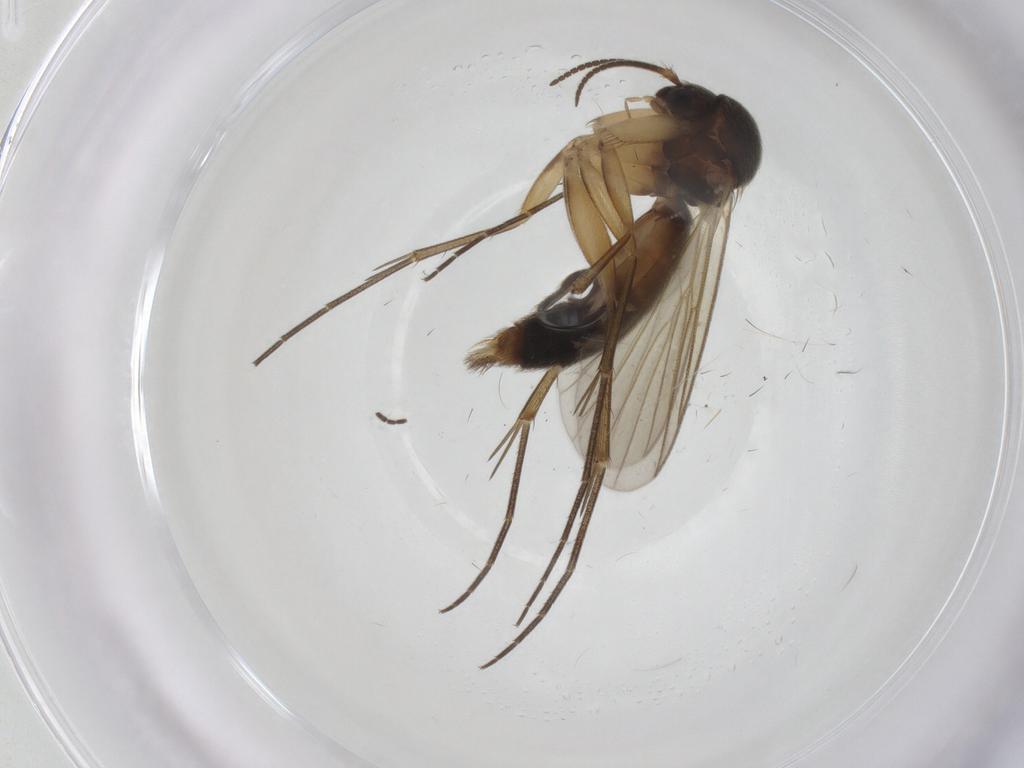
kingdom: Animalia
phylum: Arthropoda
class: Insecta
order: Diptera
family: Sciaridae
